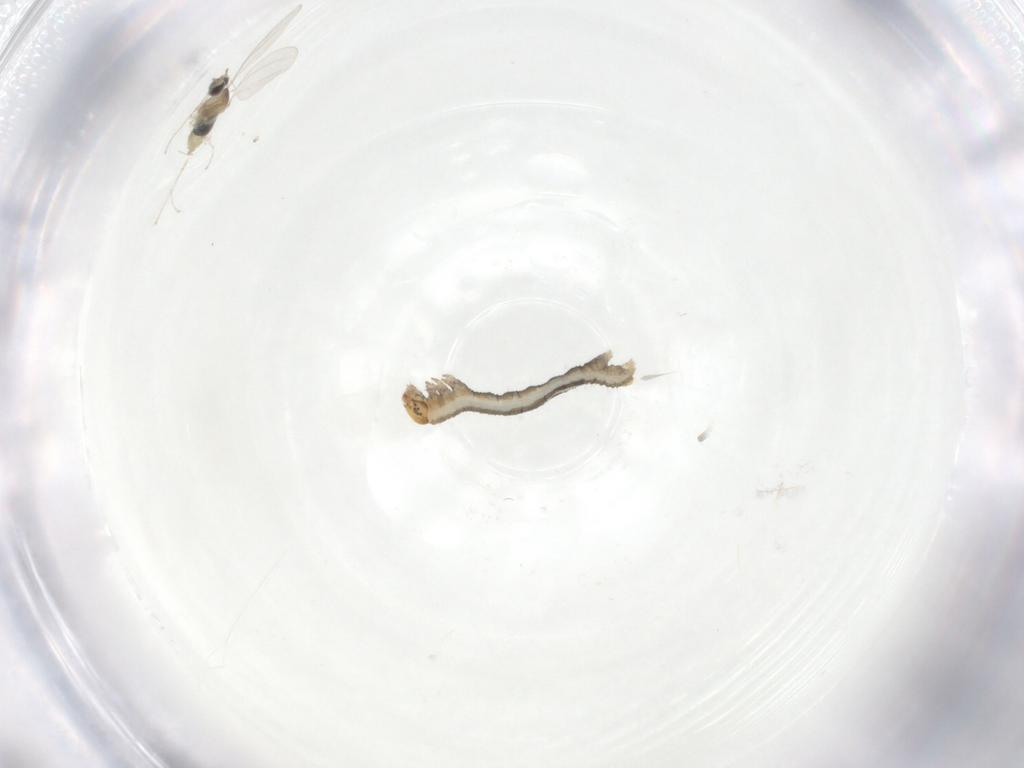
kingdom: Animalia
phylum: Arthropoda
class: Insecta
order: Lepidoptera
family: Geometridae
